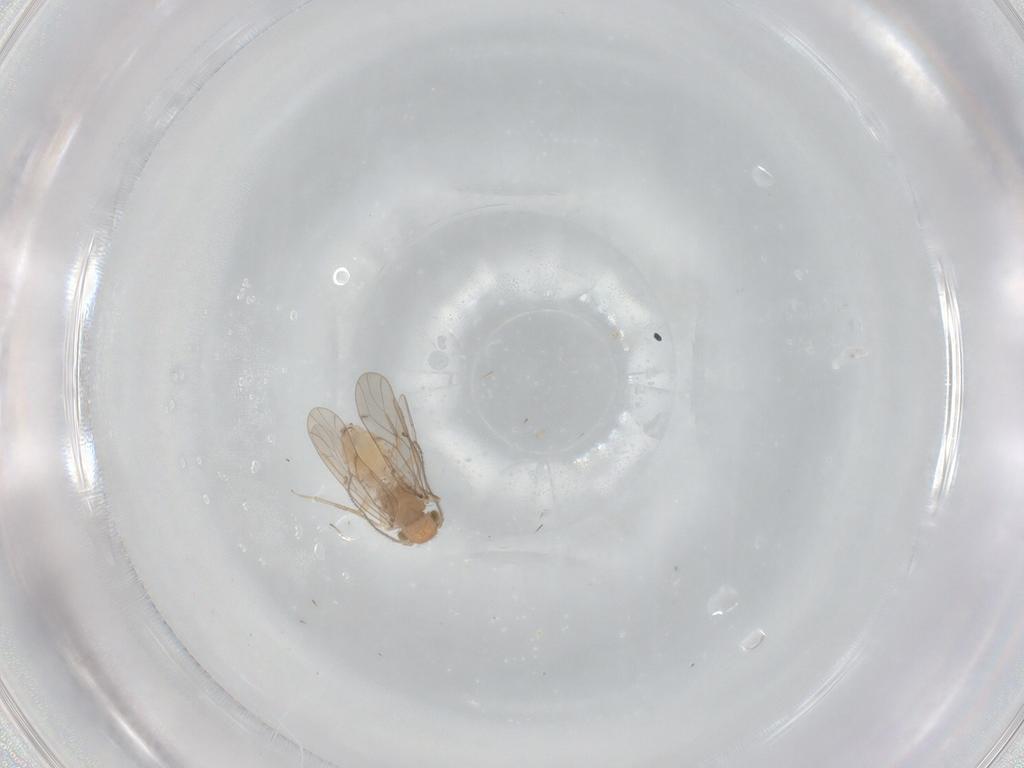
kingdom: Animalia
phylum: Arthropoda
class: Insecta
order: Psocodea
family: Ectopsocidae
